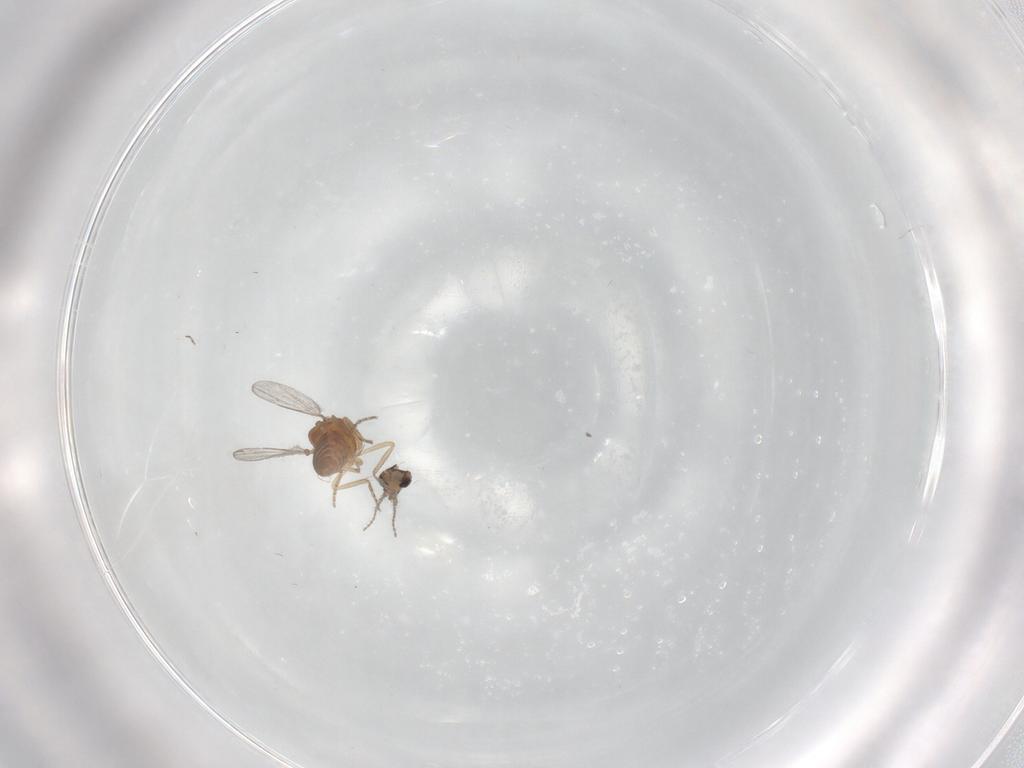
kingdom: Animalia
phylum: Arthropoda
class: Insecta
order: Diptera
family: Ceratopogonidae
